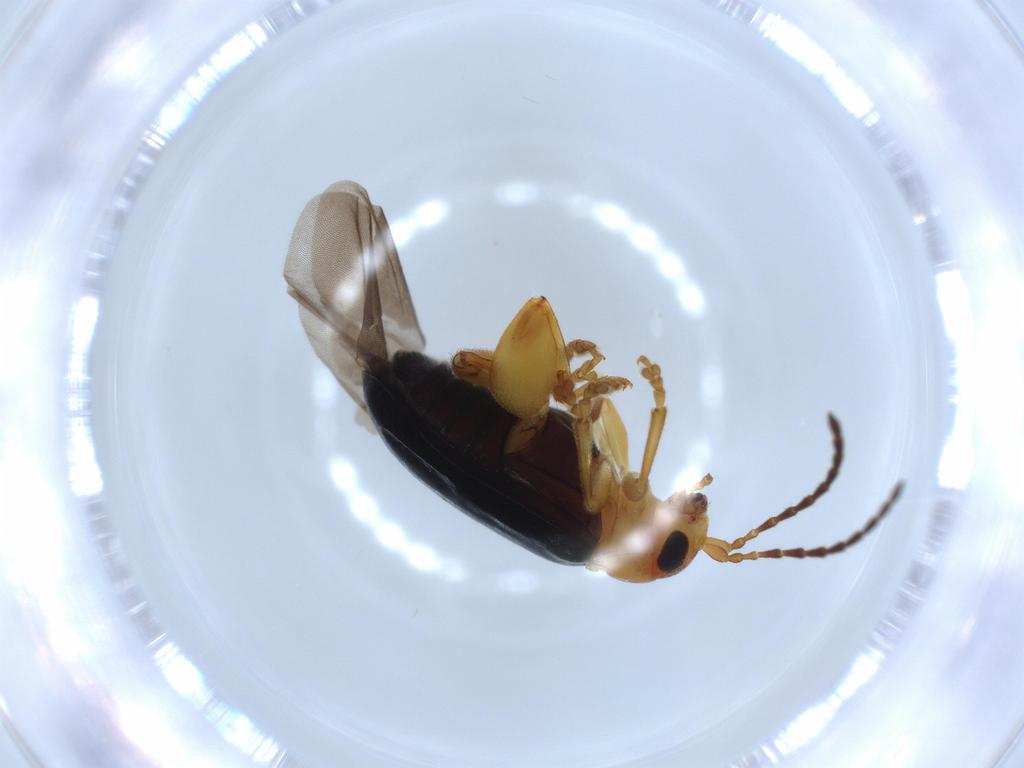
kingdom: Animalia
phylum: Arthropoda
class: Insecta
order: Coleoptera
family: Chrysomelidae
